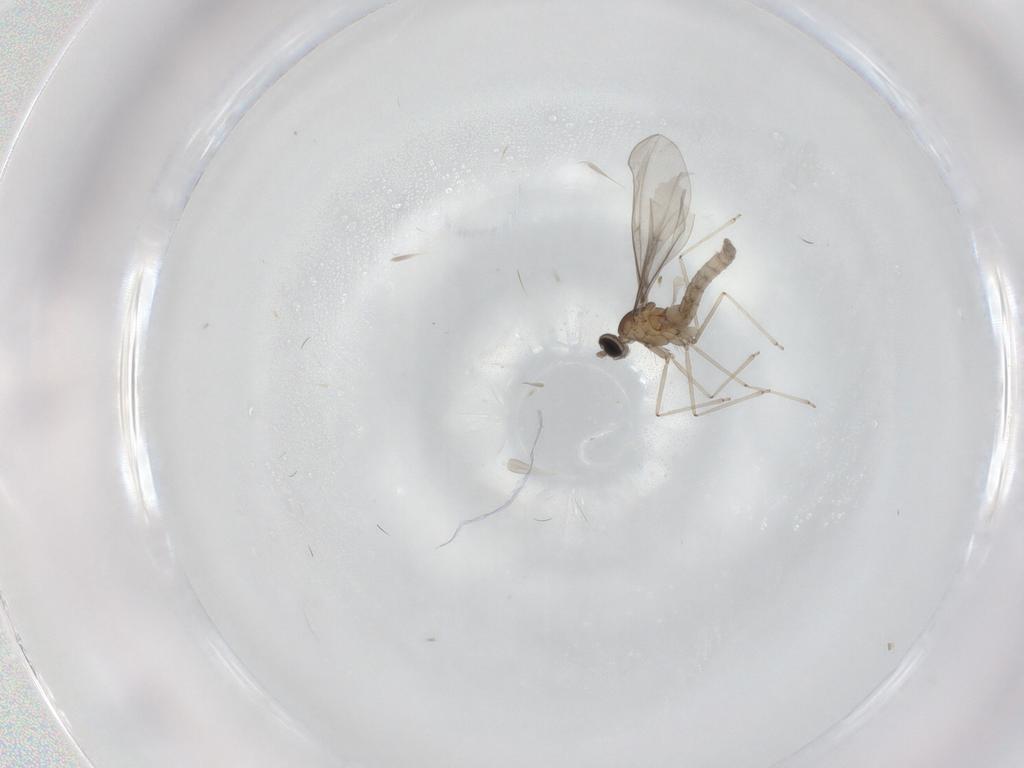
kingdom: Animalia
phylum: Arthropoda
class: Insecta
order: Diptera
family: Cecidomyiidae
